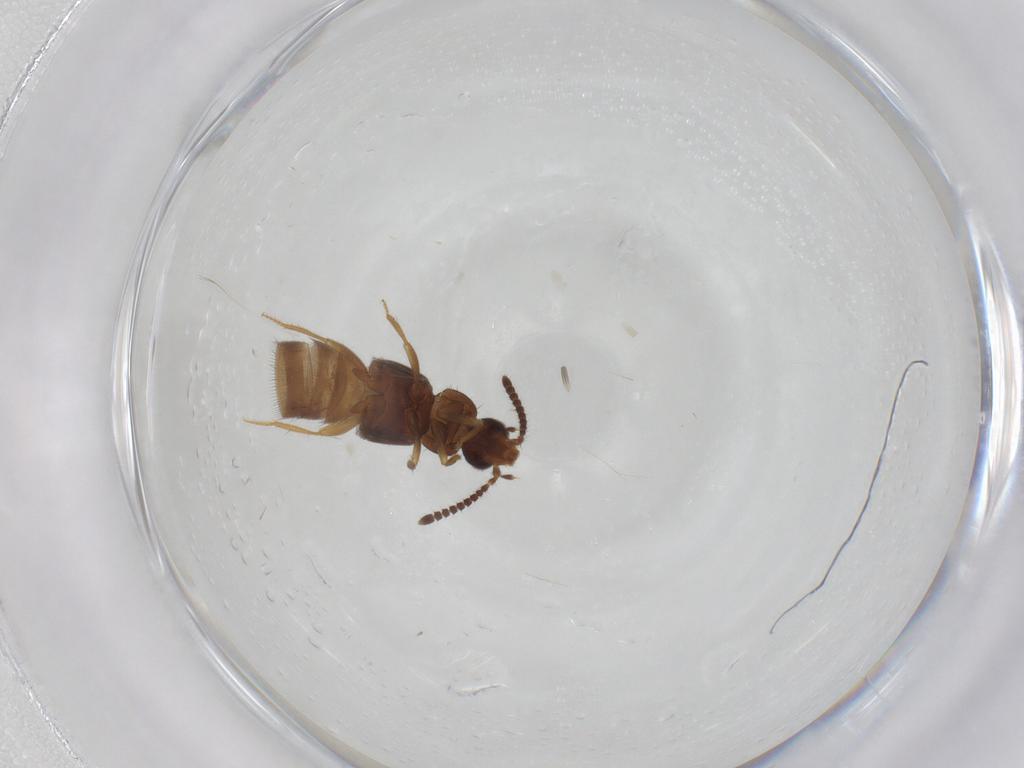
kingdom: Animalia
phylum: Arthropoda
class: Insecta
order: Coleoptera
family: Staphylinidae
